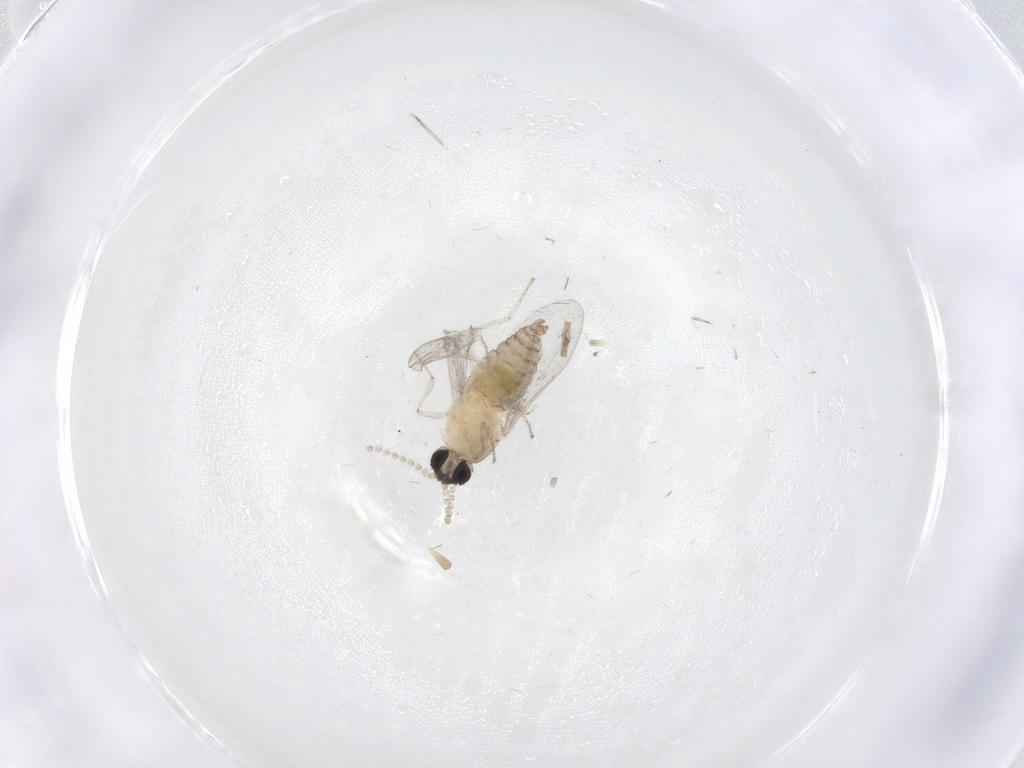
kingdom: Animalia
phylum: Arthropoda
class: Insecta
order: Diptera
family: Cecidomyiidae
